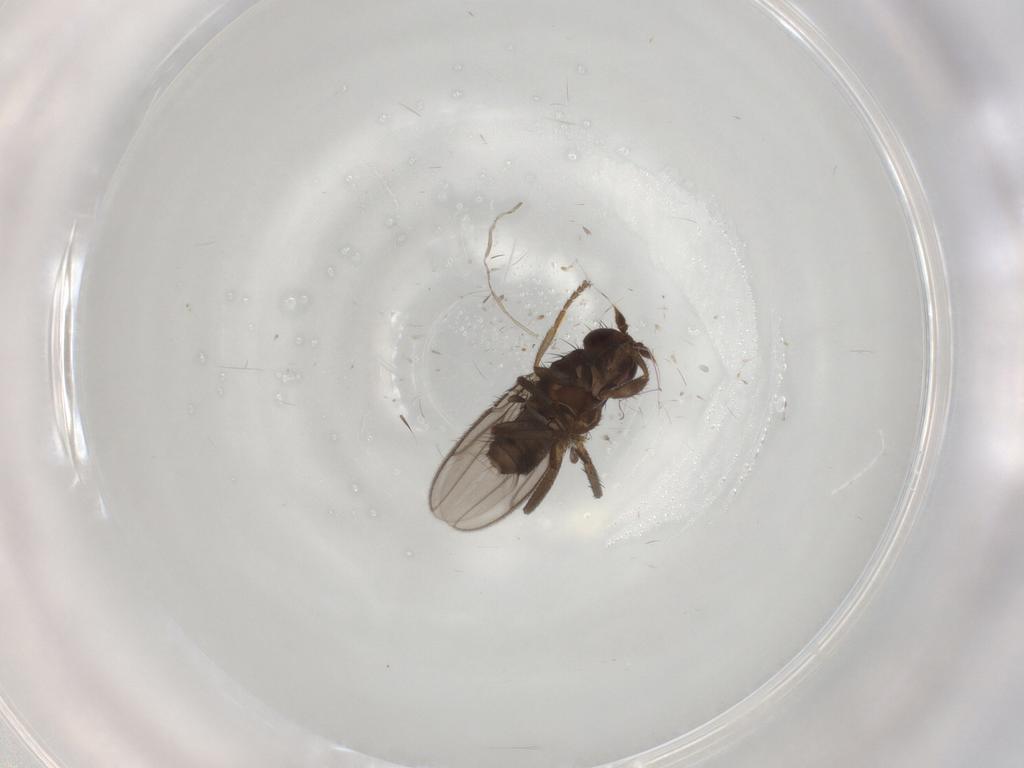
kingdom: Animalia
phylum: Arthropoda
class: Insecta
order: Diptera
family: Sphaeroceridae
